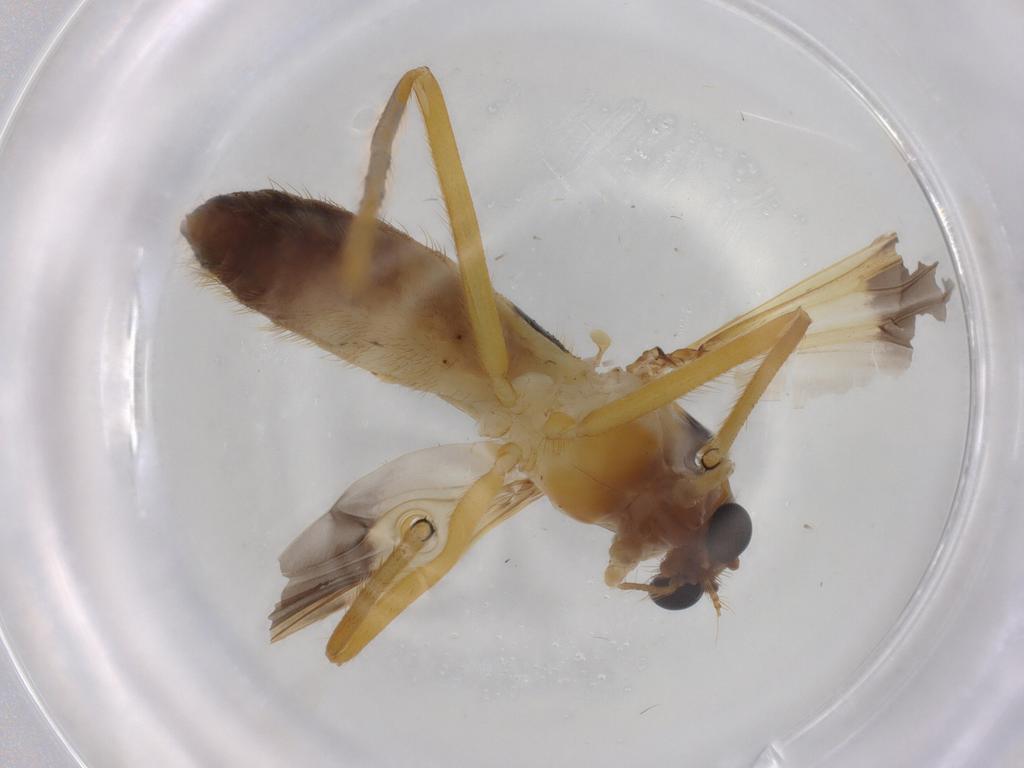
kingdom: Animalia
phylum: Arthropoda
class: Insecta
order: Diptera
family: Chironomidae
